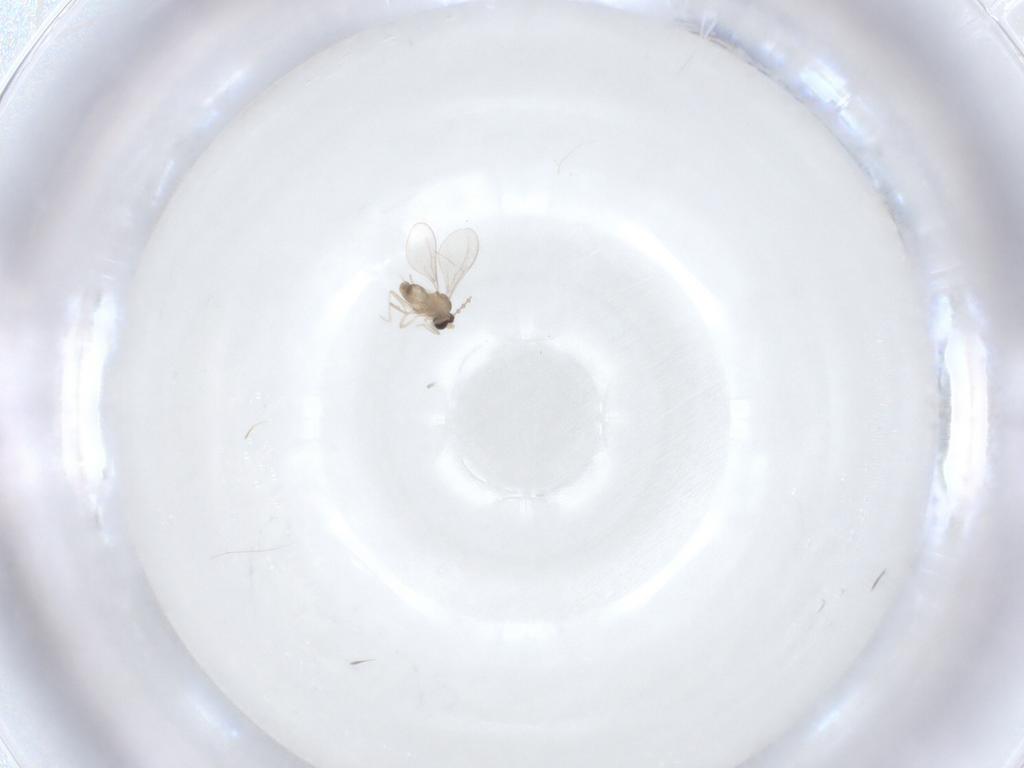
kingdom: Animalia
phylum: Arthropoda
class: Insecta
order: Diptera
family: Cecidomyiidae
